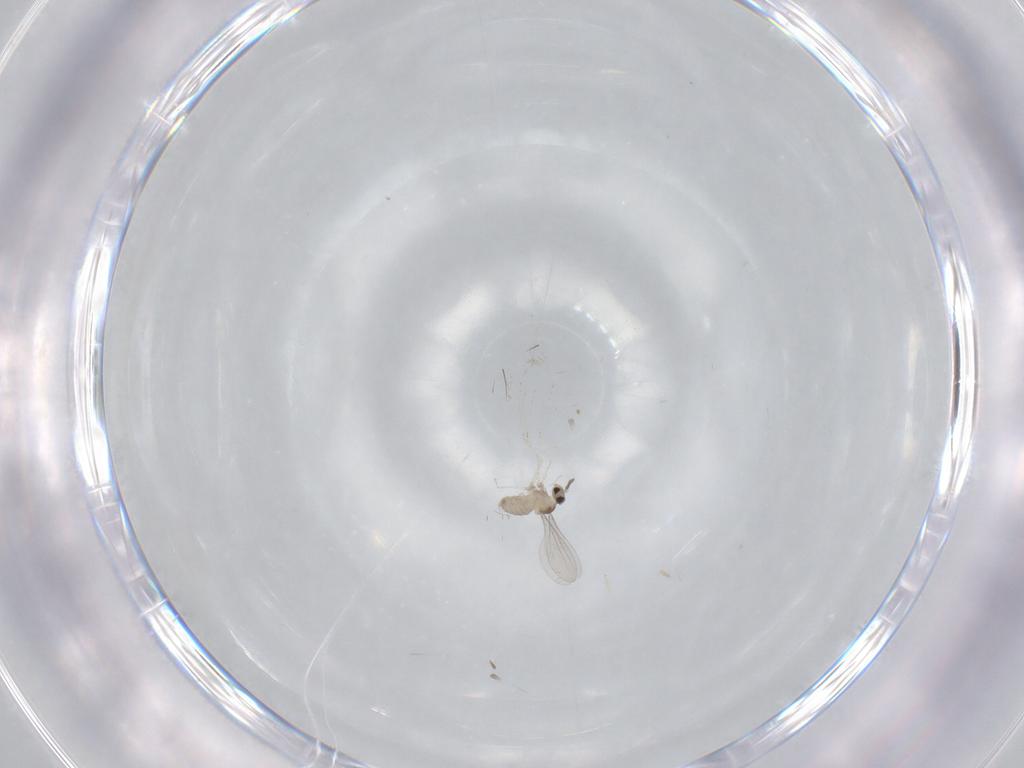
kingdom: Animalia
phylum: Arthropoda
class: Insecta
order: Diptera
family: Cecidomyiidae
